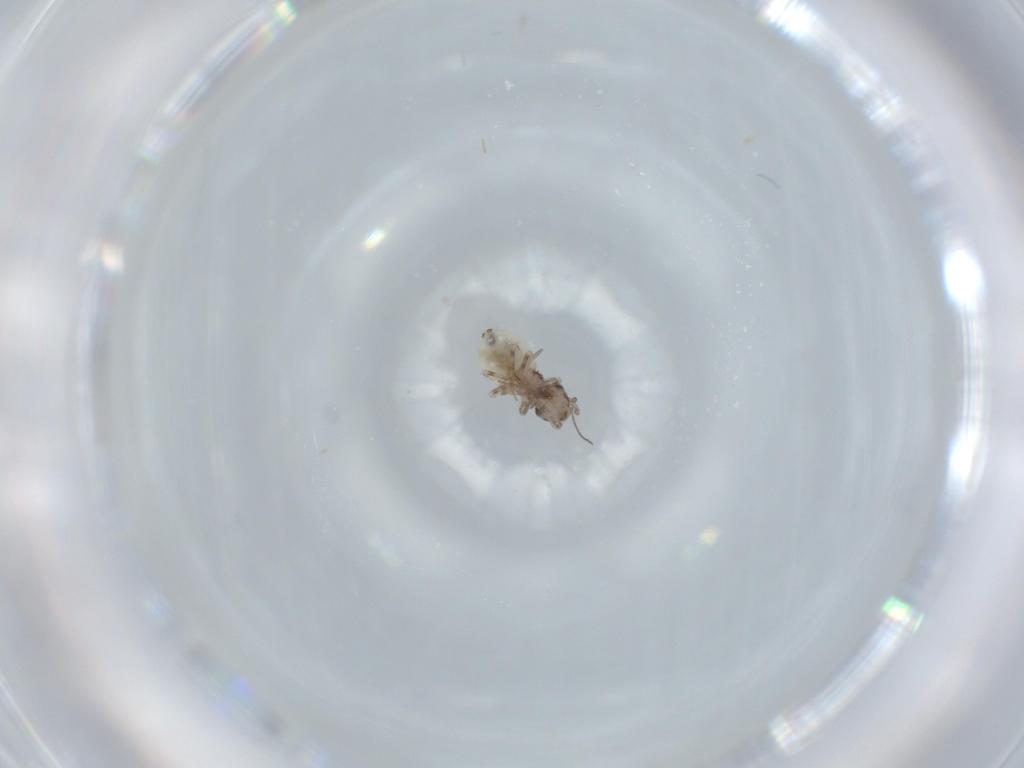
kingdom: Animalia
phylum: Arthropoda
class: Insecta
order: Psocodea
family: Lepidopsocidae
